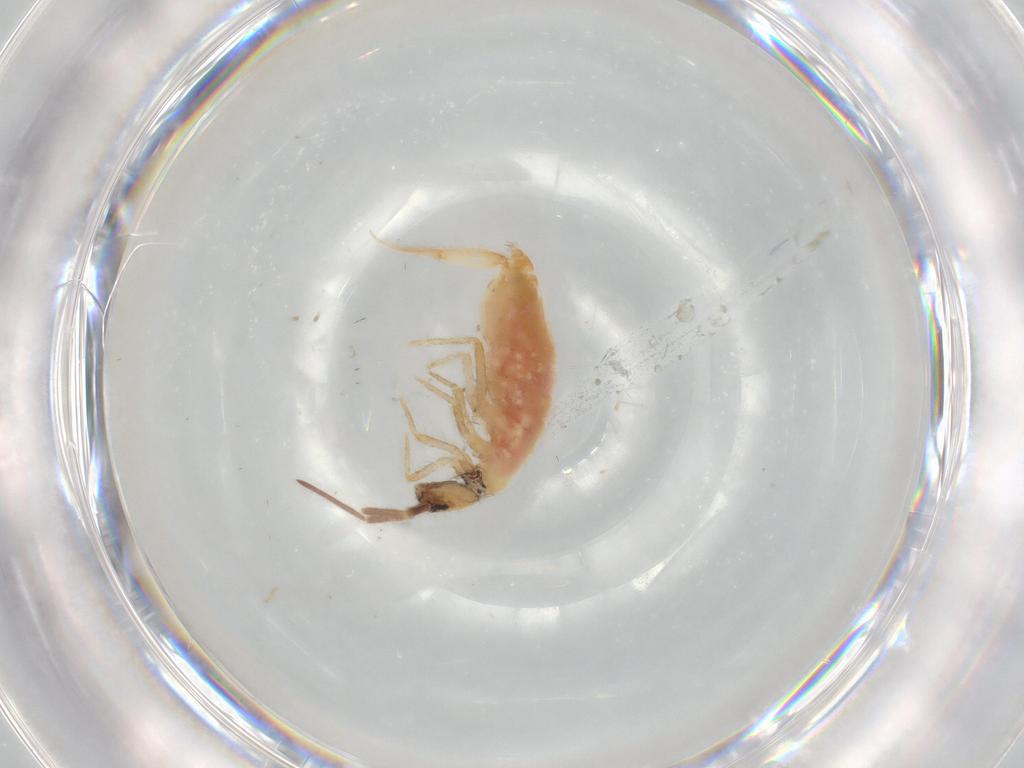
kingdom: Animalia
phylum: Arthropoda
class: Collembola
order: Entomobryomorpha
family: Entomobryidae
